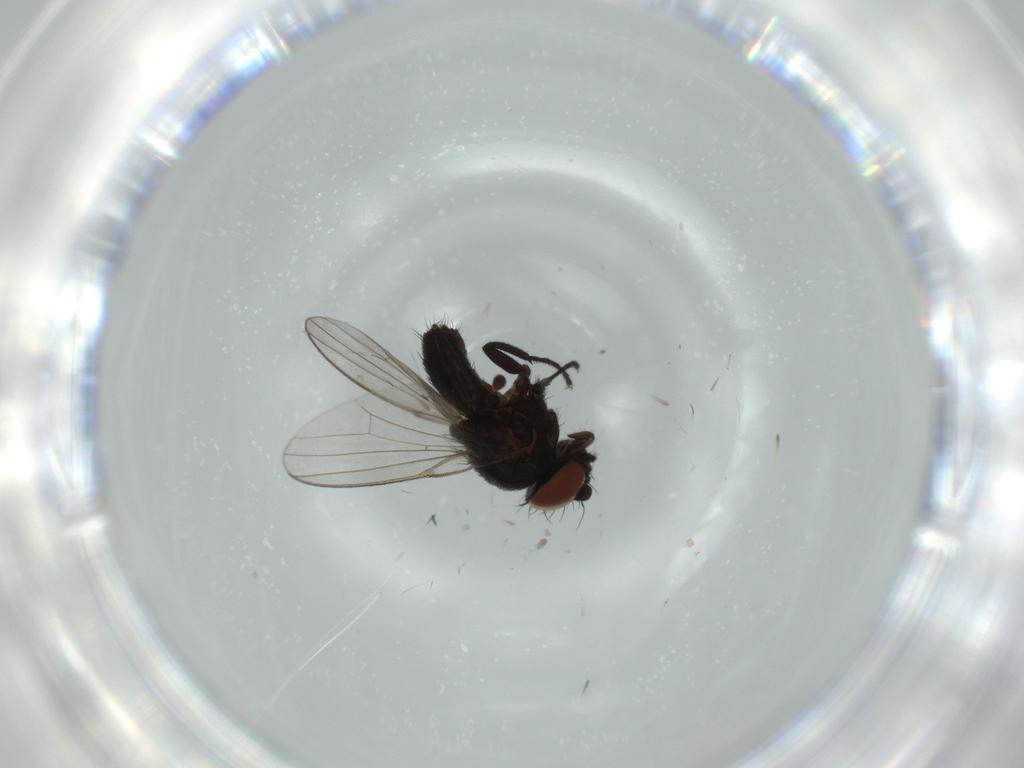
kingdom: Animalia
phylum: Arthropoda
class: Insecta
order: Diptera
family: Milichiidae
